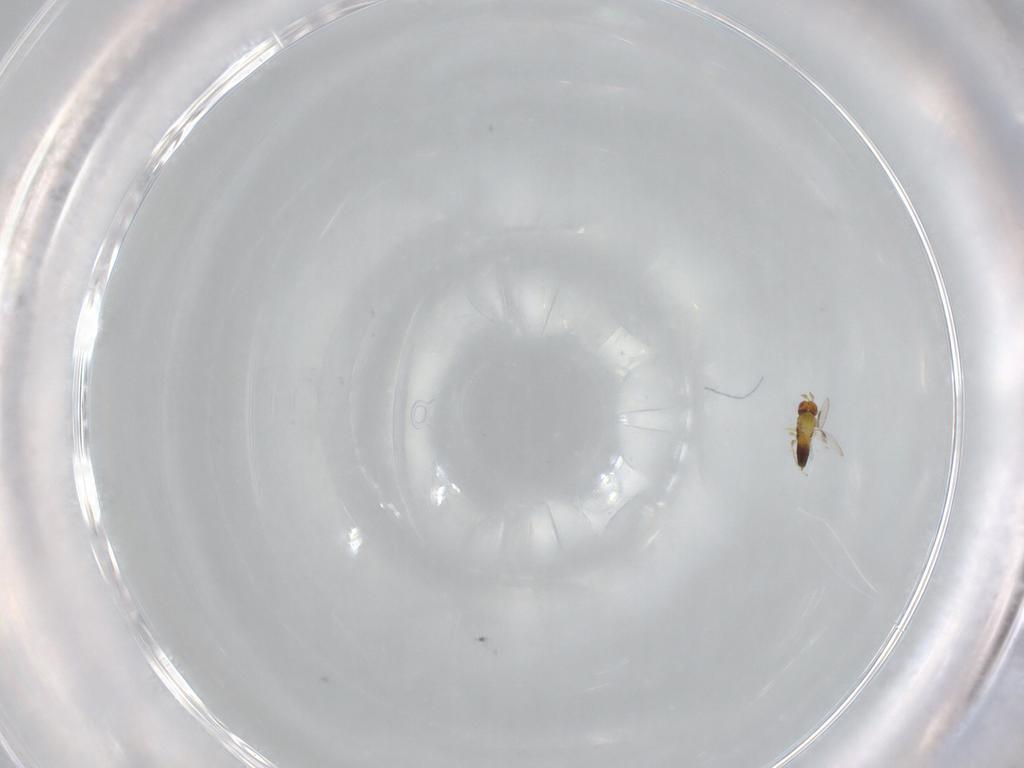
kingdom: Animalia
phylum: Arthropoda
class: Insecta
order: Hymenoptera
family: Trichogrammatidae
